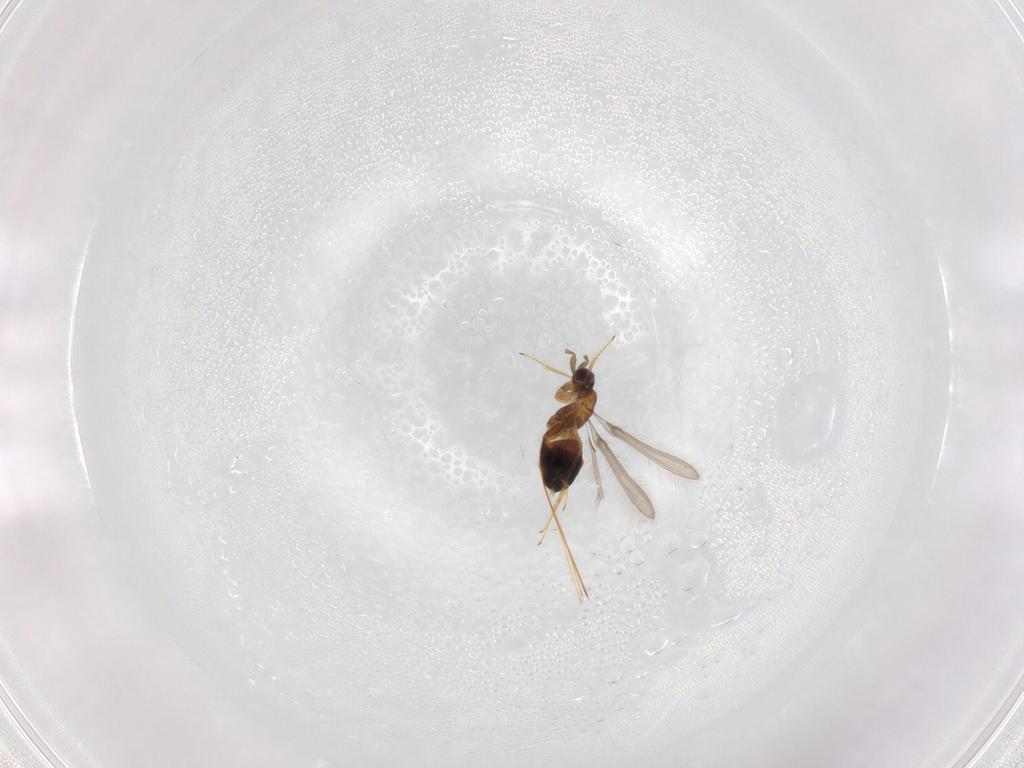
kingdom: Animalia
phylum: Arthropoda
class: Insecta
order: Hymenoptera
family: Mymaridae
